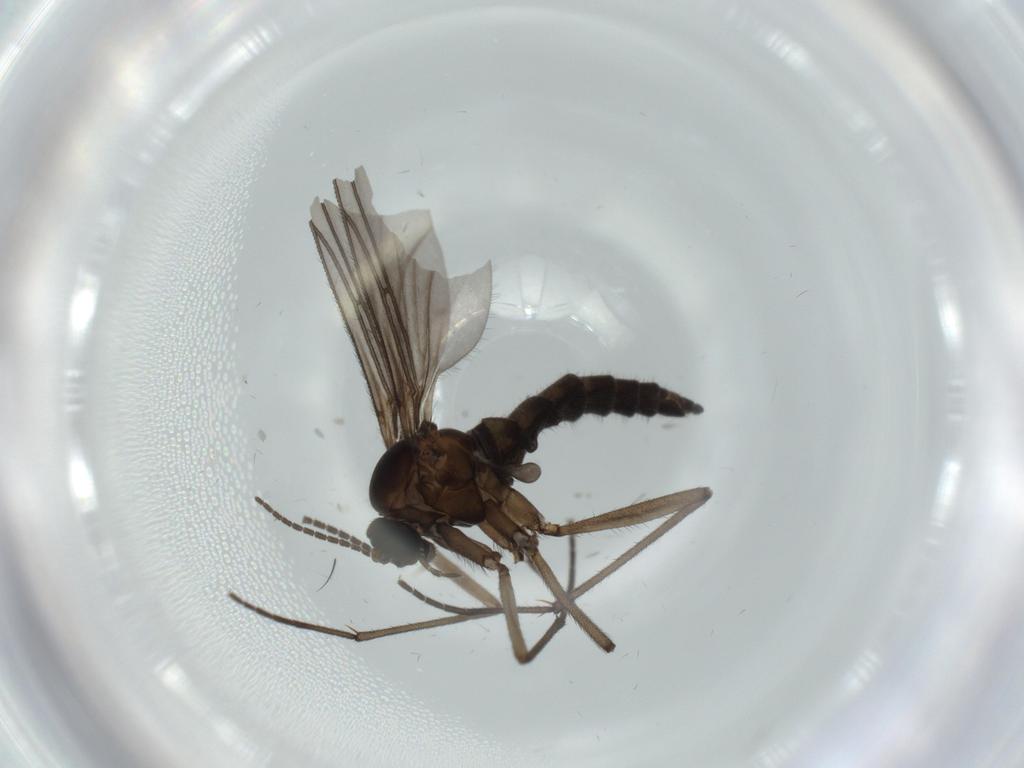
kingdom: Animalia
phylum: Arthropoda
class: Insecta
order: Diptera
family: Sciaridae
